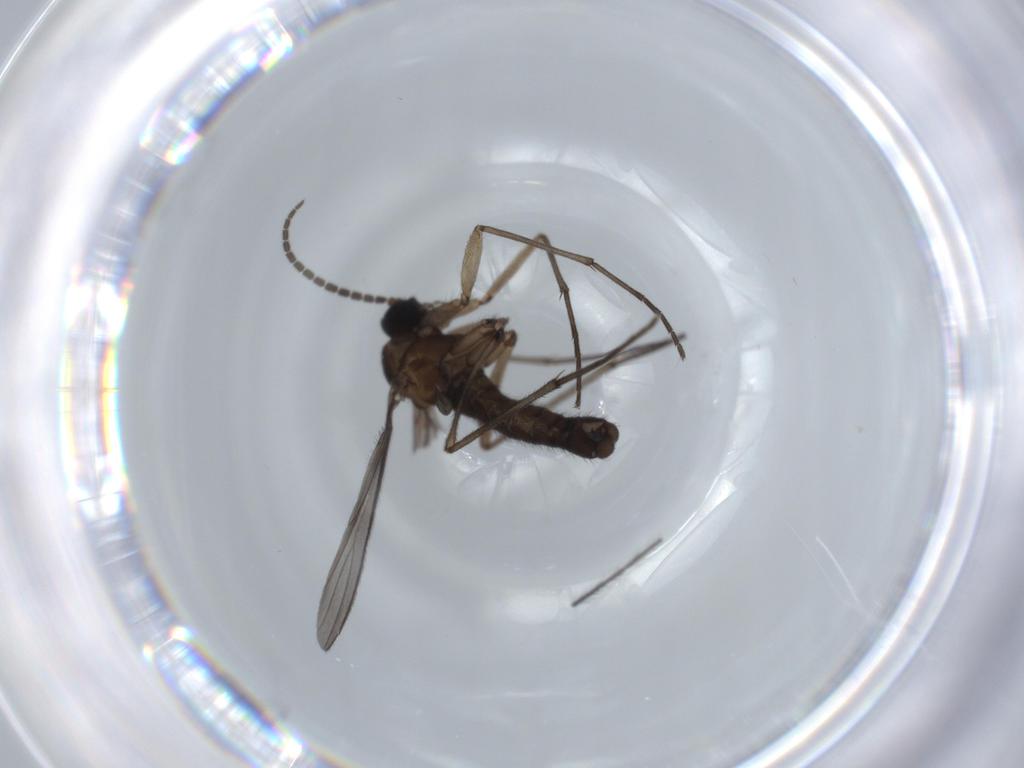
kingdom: Animalia
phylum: Arthropoda
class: Insecta
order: Diptera
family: Sciaridae
